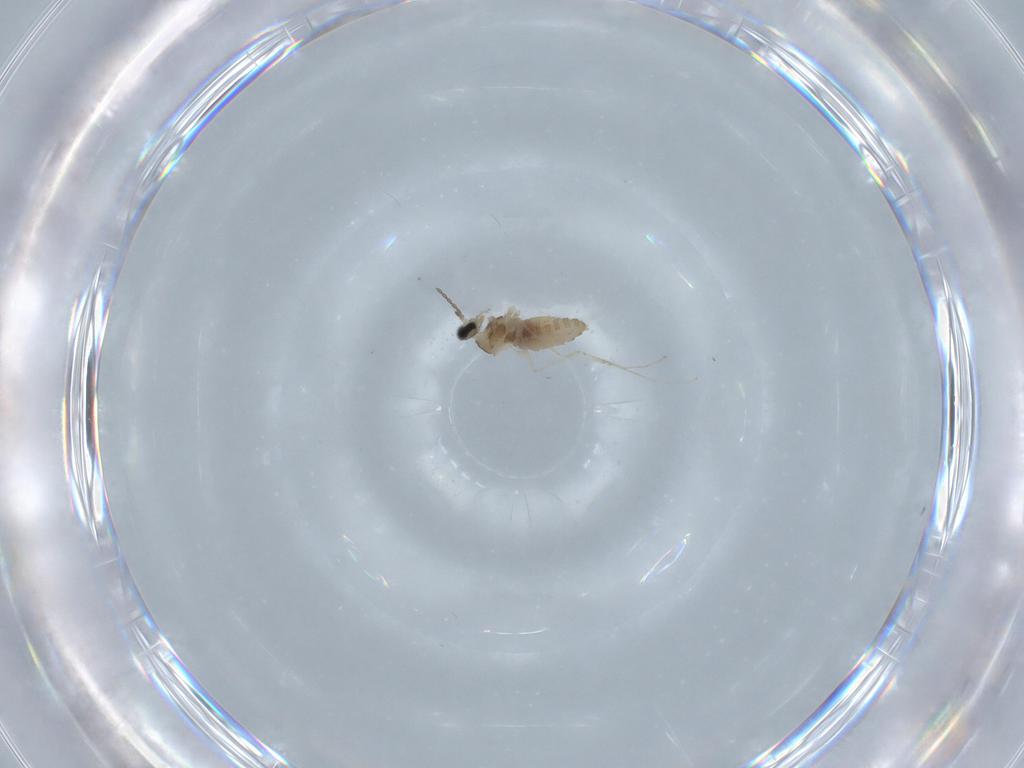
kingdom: Animalia
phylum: Arthropoda
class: Insecta
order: Diptera
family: Cecidomyiidae
